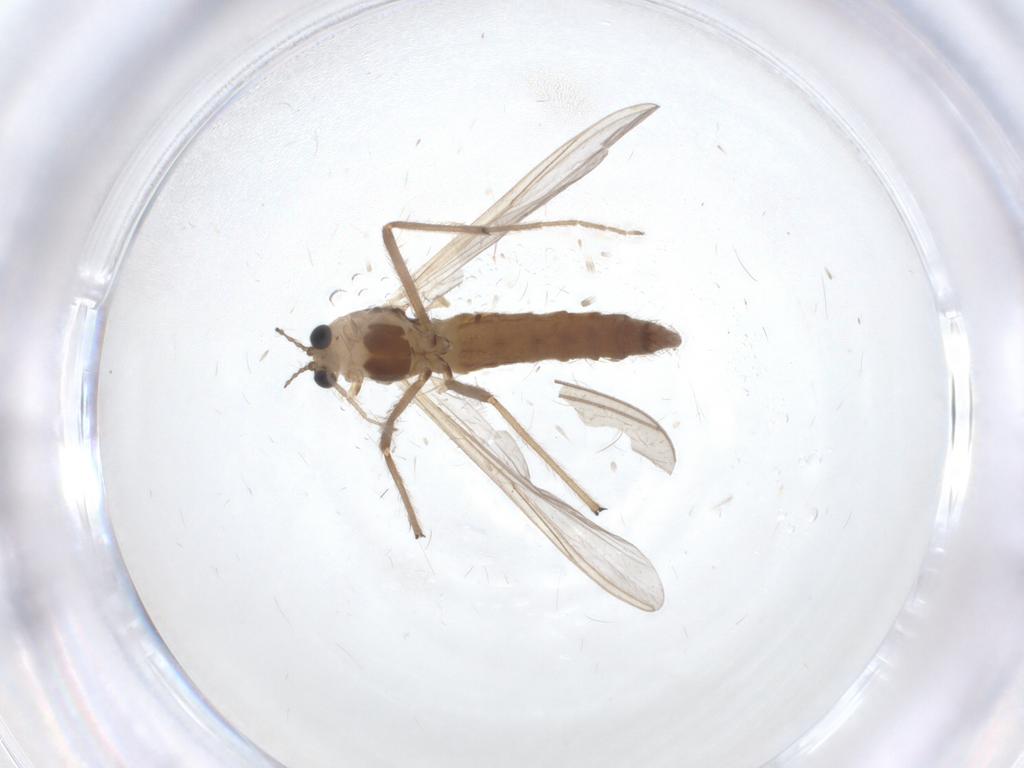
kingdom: Animalia
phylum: Arthropoda
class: Insecta
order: Diptera
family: Chironomidae
